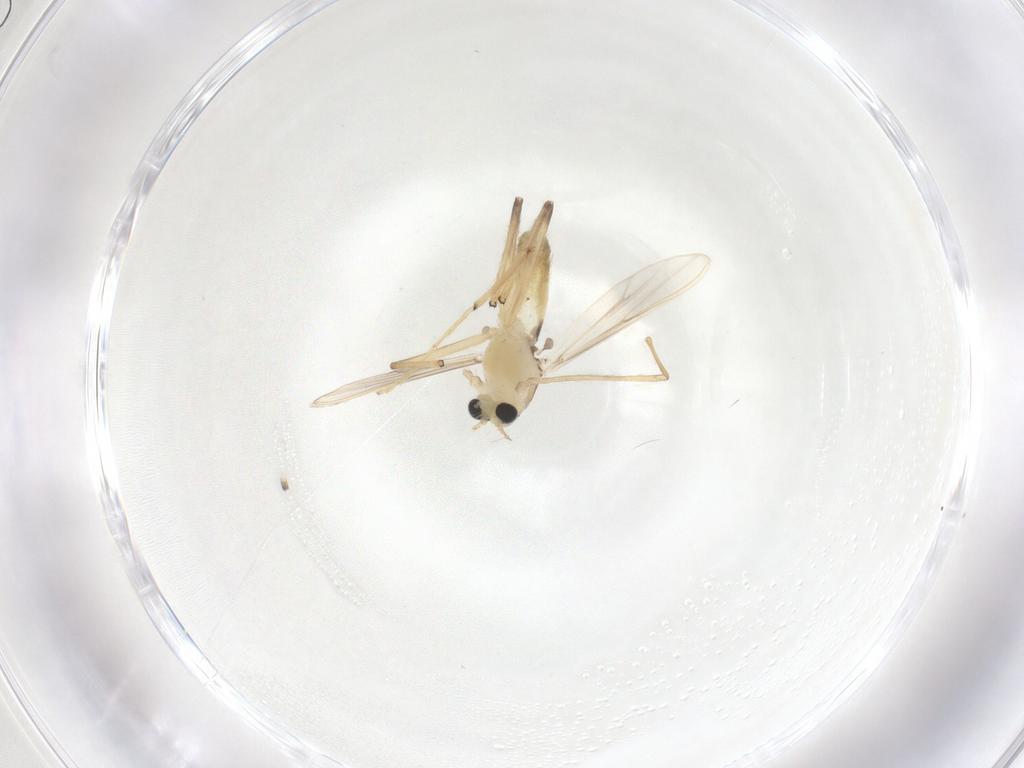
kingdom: Animalia
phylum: Arthropoda
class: Insecta
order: Diptera
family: Chironomidae
